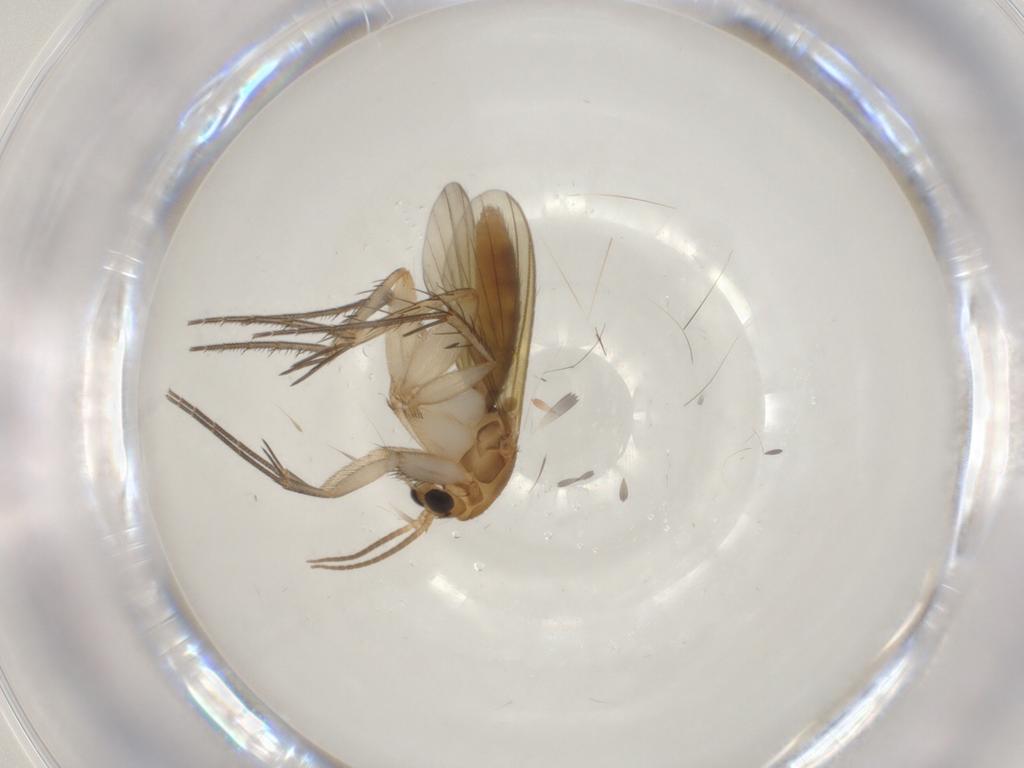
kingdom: Animalia
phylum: Arthropoda
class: Insecta
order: Diptera
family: Mycetophilidae
